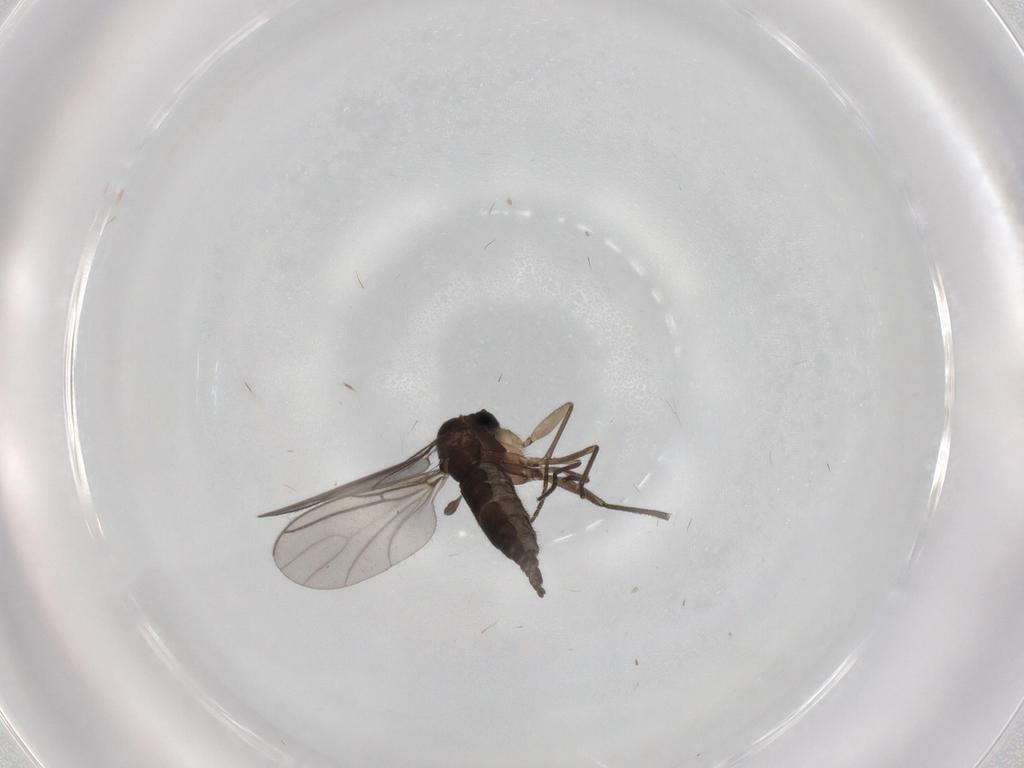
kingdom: Animalia
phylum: Arthropoda
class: Insecta
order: Diptera
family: Sciaridae
